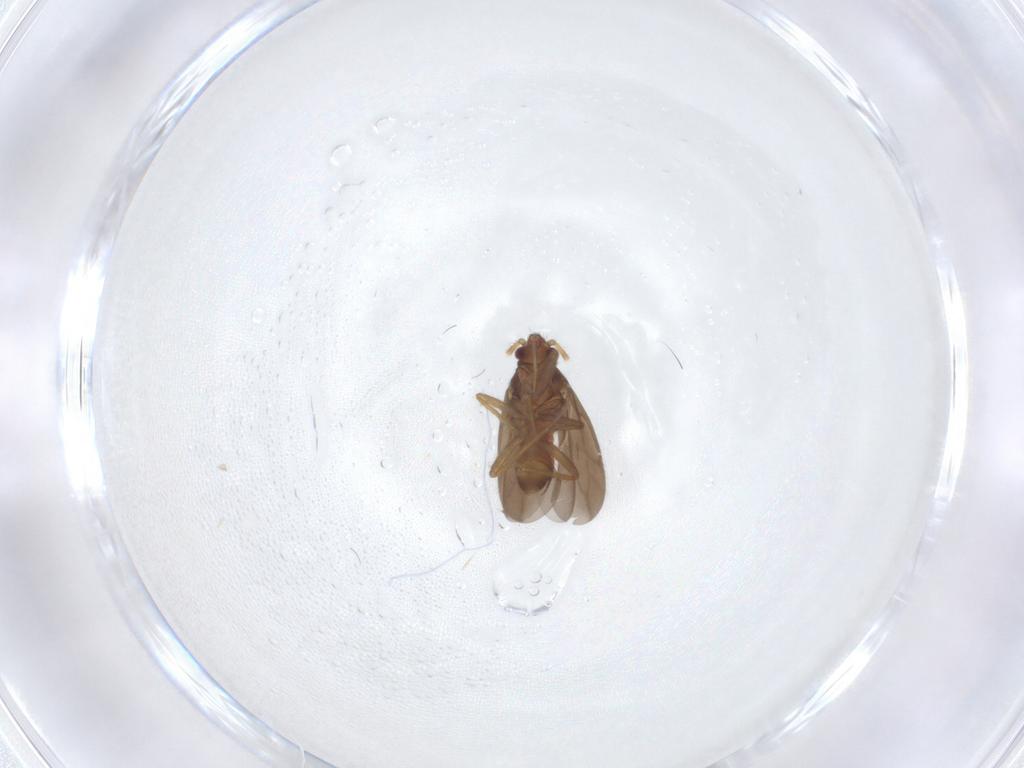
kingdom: Animalia
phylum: Arthropoda
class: Insecta
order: Hemiptera
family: Ceratocombidae
